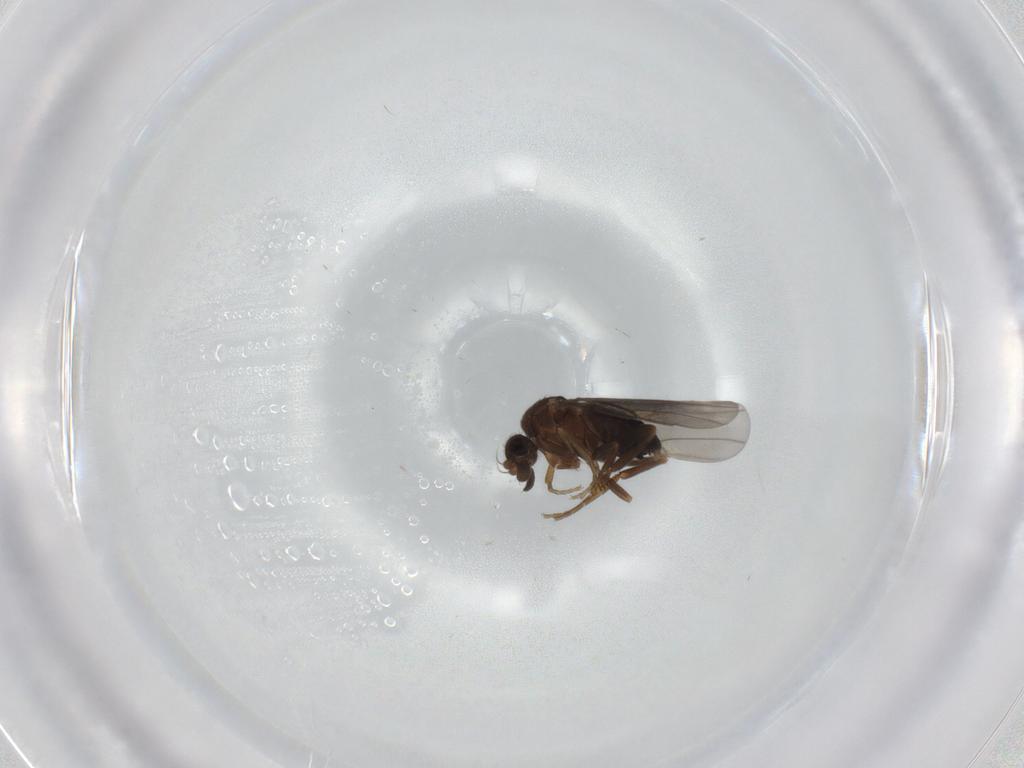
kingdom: Animalia
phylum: Arthropoda
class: Insecta
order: Diptera
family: Phoridae
